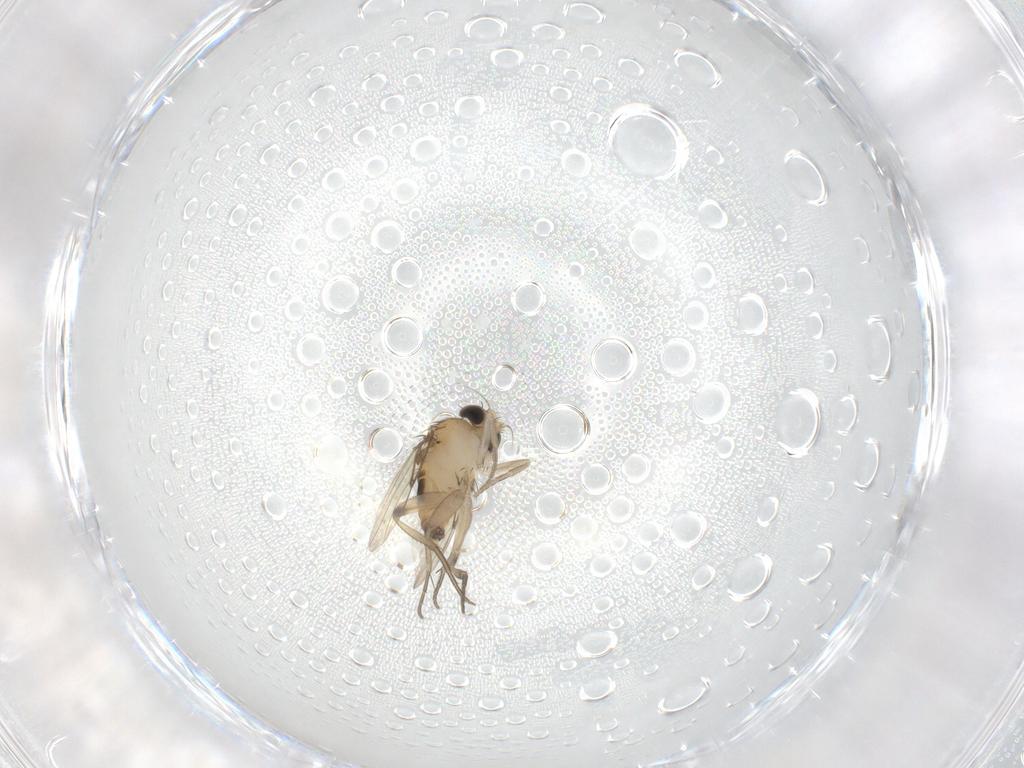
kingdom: Animalia
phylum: Arthropoda
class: Insecta
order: Diptera
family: Phoridae
